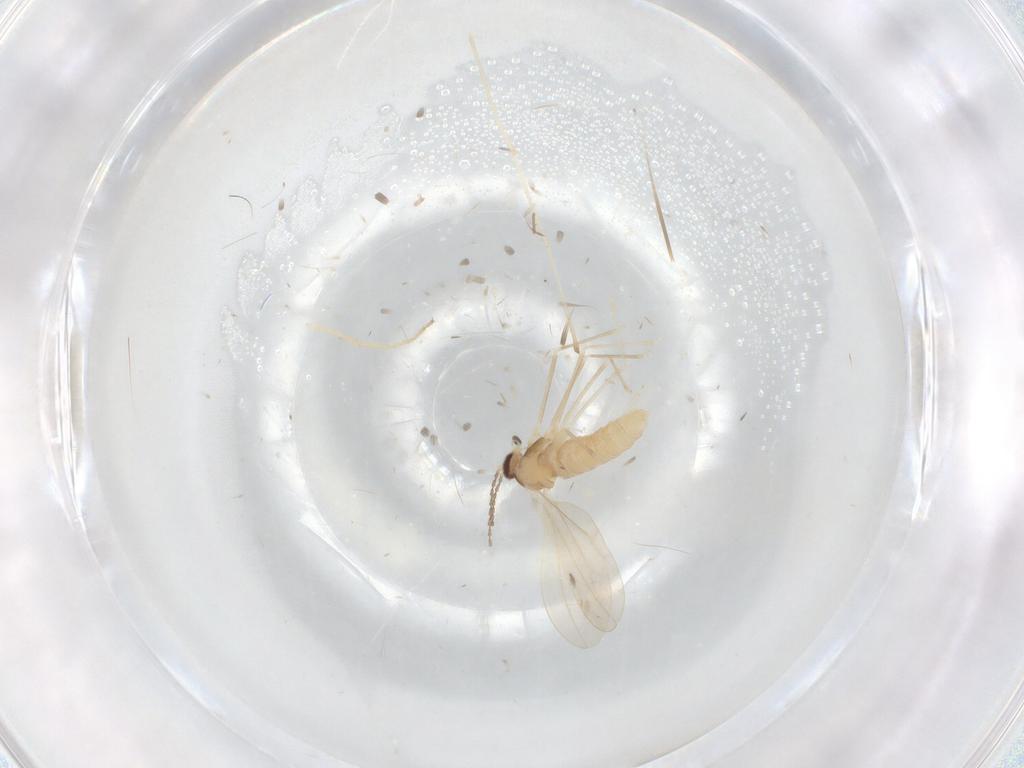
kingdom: Animalia
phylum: Arthropoda
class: Insecta
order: Diptera
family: Cecidomyiidae
